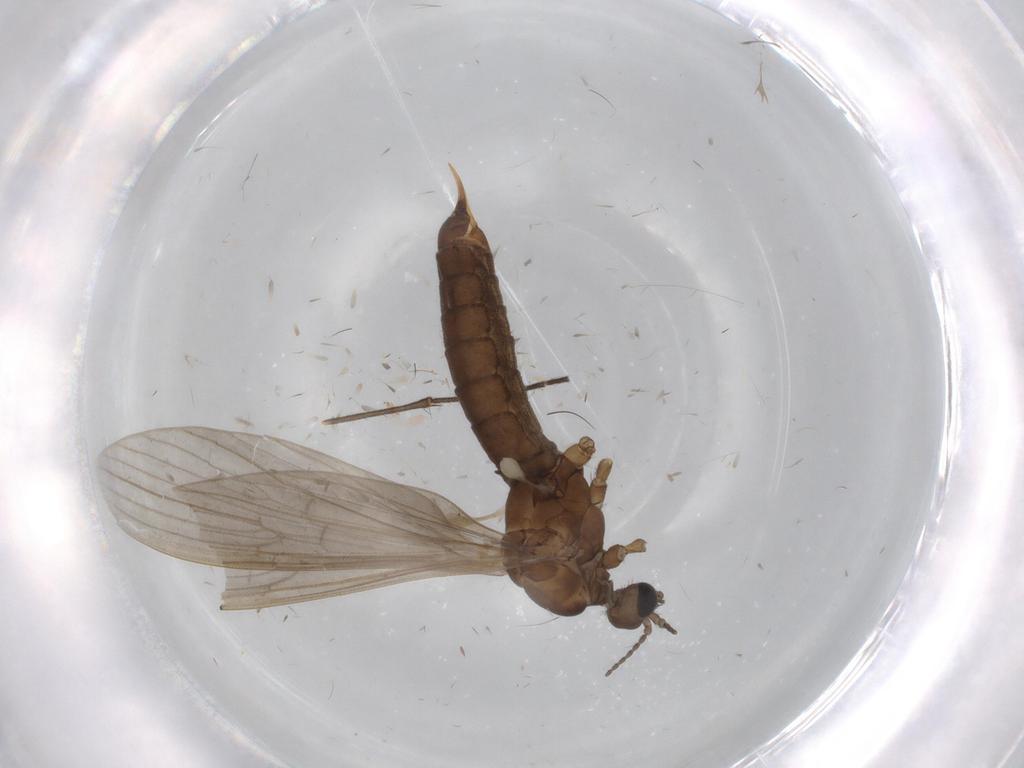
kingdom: Animalia
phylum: Arthropoda
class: Insecta
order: Diptera
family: Limoniidae
